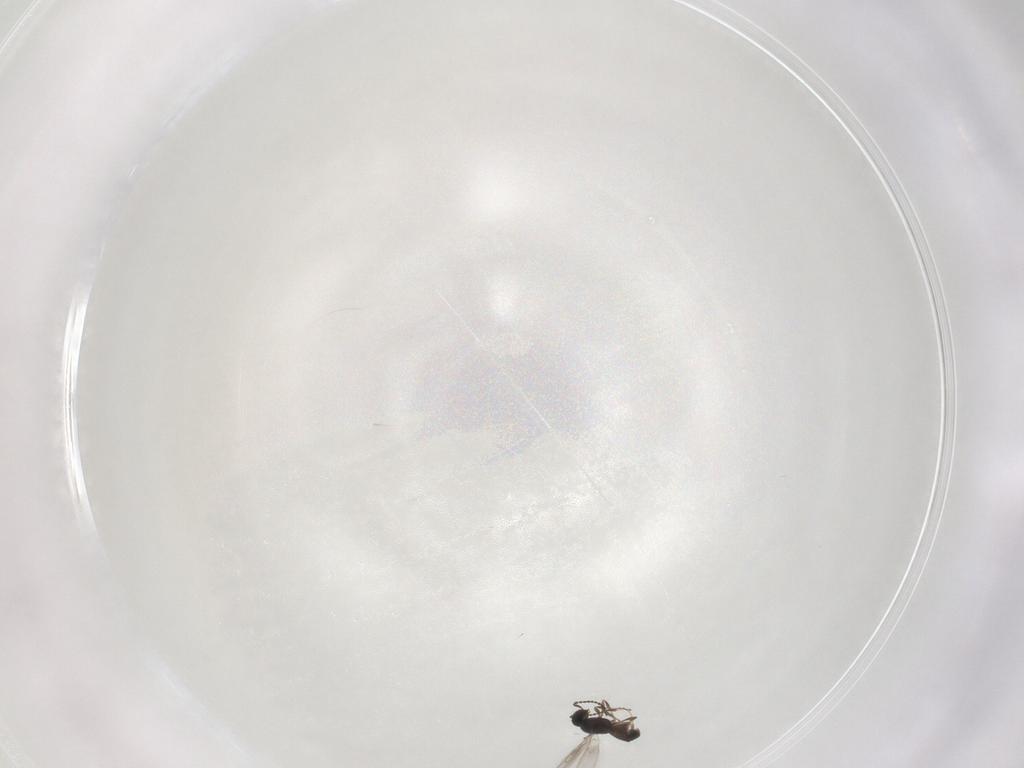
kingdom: Animalia
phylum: Arthropoda
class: Insecta
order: Hymenoptera
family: Scelionidae
